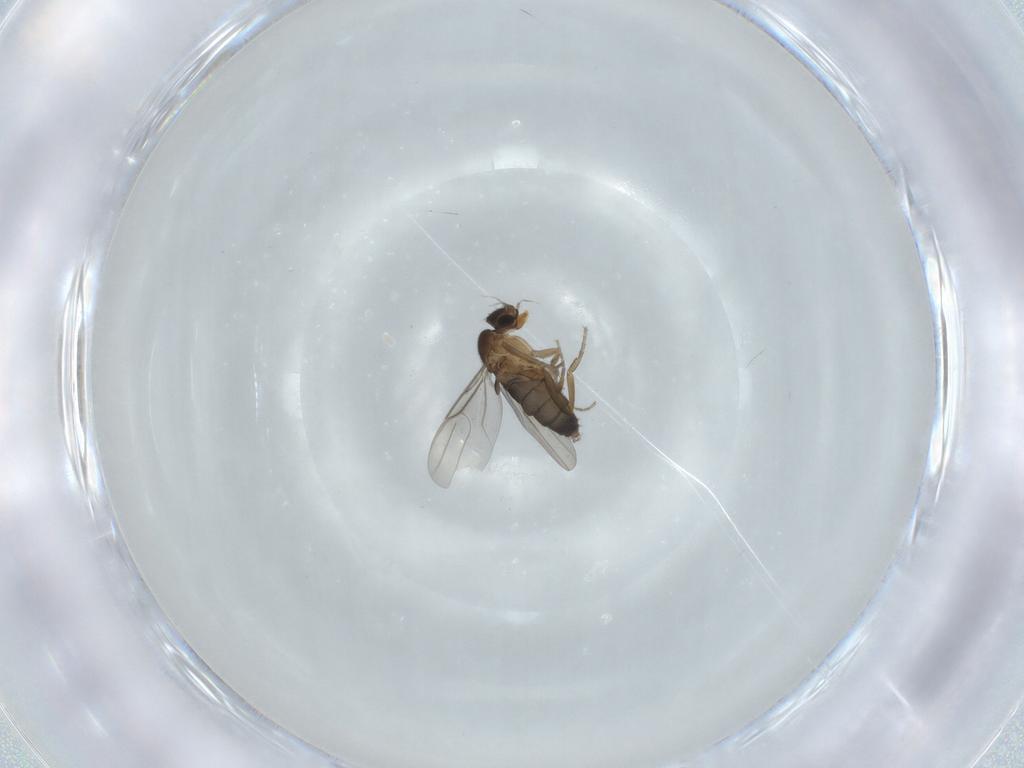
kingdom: Animalia
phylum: Arthropoda
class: Insecta
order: Diptera
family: Phoridae
